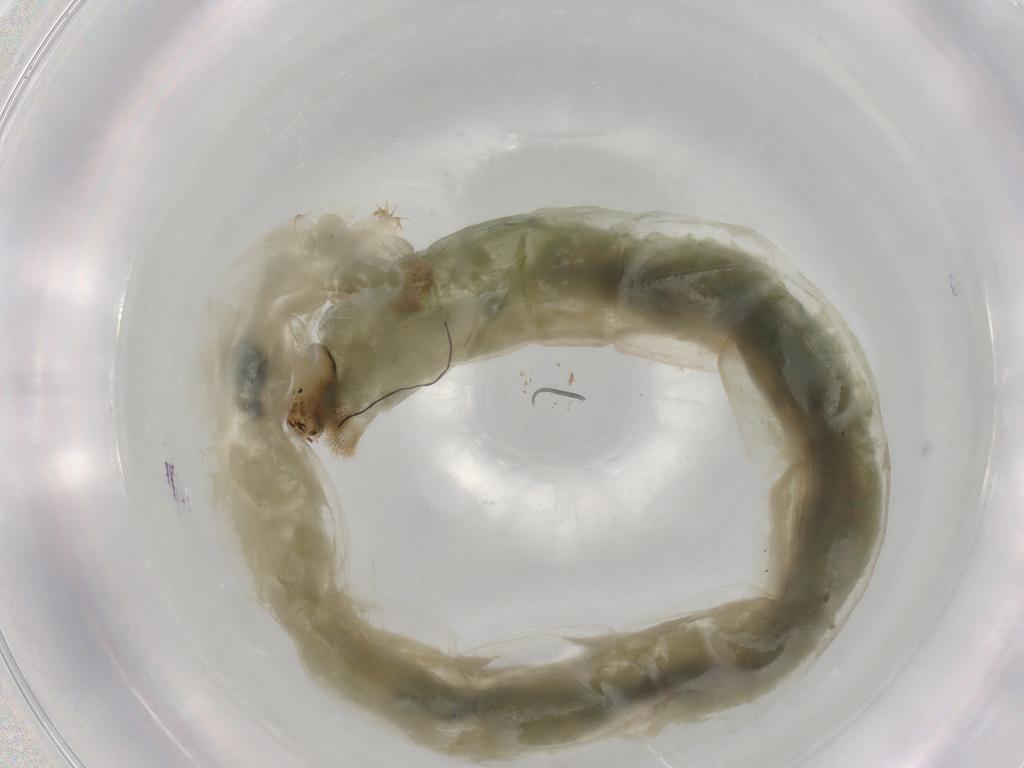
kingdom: Animalia
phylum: Arthropoda
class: Insecta
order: Diptera
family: Chironomidae
